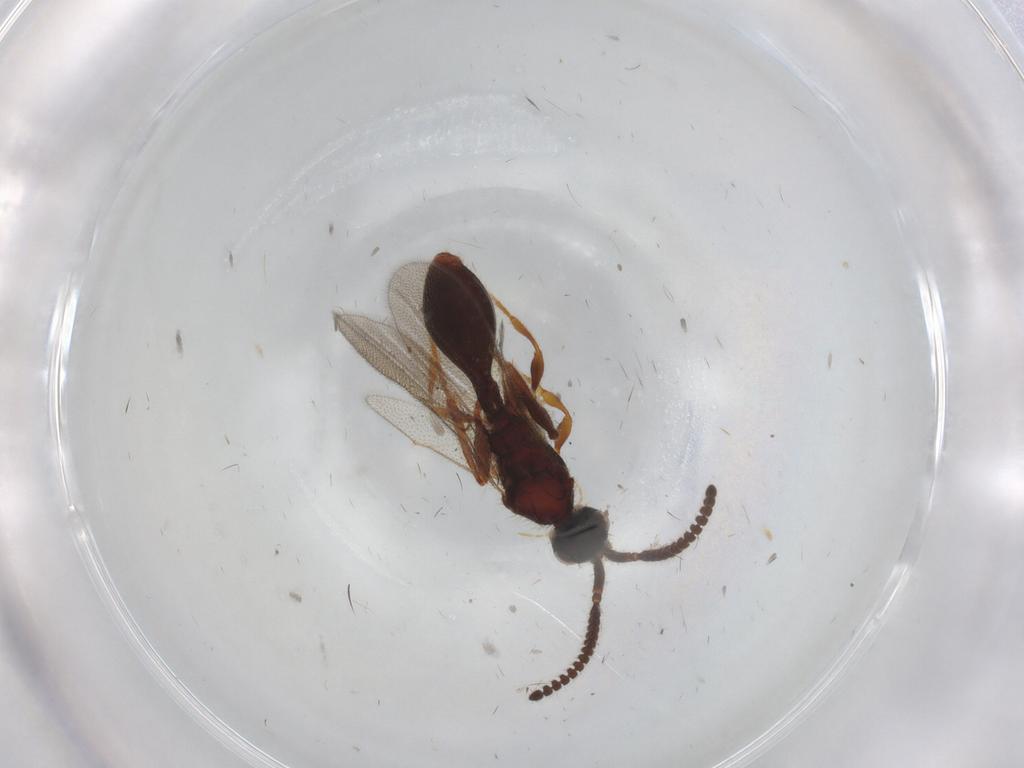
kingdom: Animalia
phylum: Arthropoda
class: Insecta
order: Hymenoptera
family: Diapriidae
